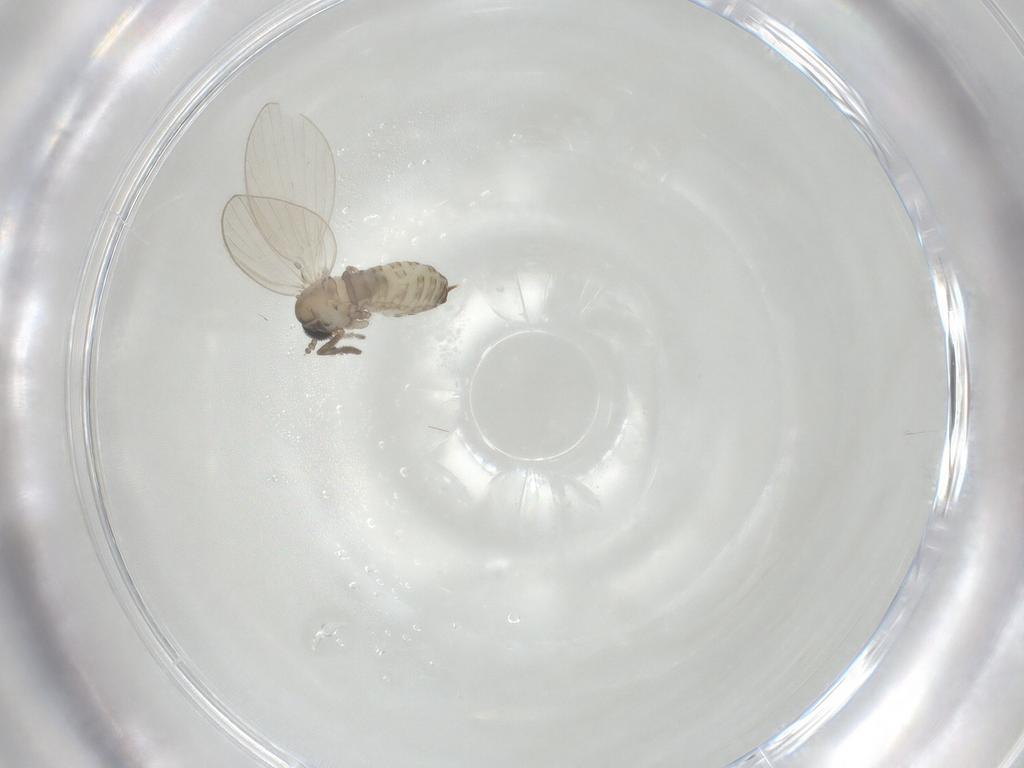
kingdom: Animalia
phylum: Arthropoda
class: Insecta
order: Diptera
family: Psychodidae
